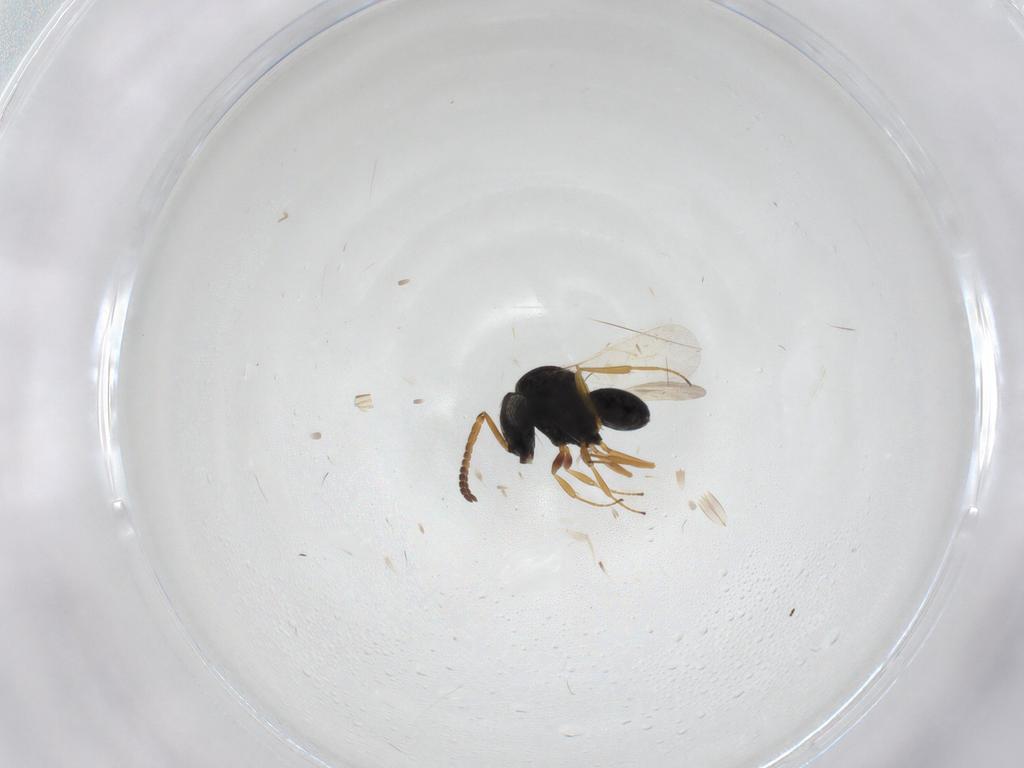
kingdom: Animalia
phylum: Arthropoda
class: Insecta
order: Hymenoptera
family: Scelionidae
